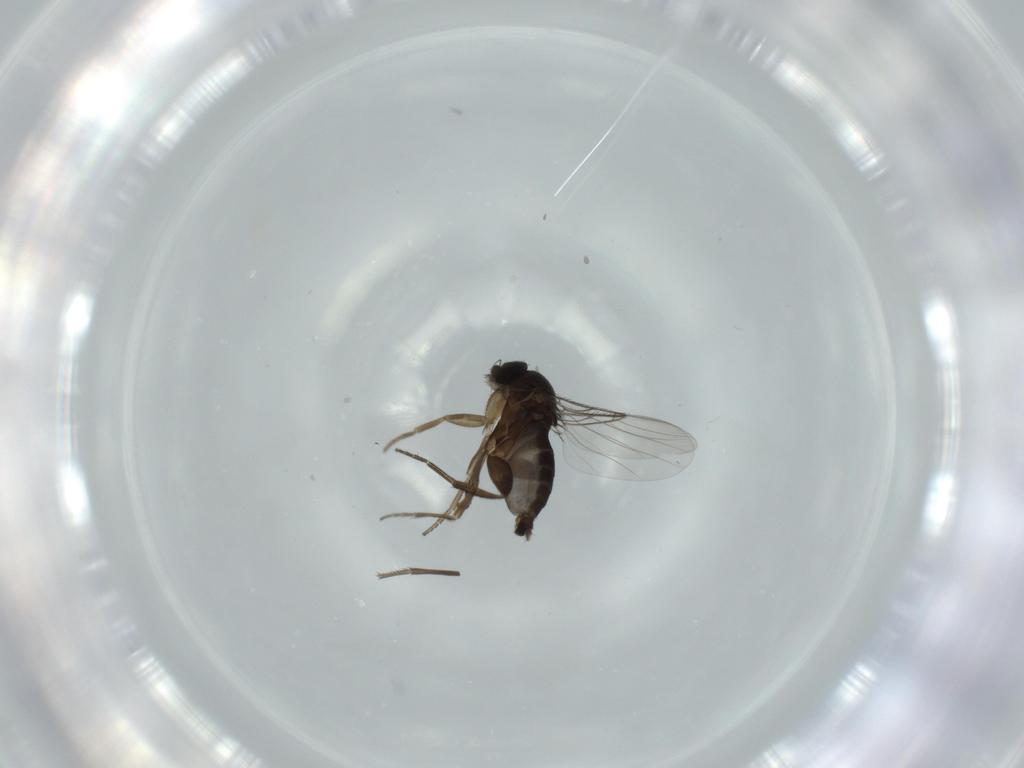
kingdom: Animalia
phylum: Arthropoda
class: Insecta
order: Diptera
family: Phoridae
